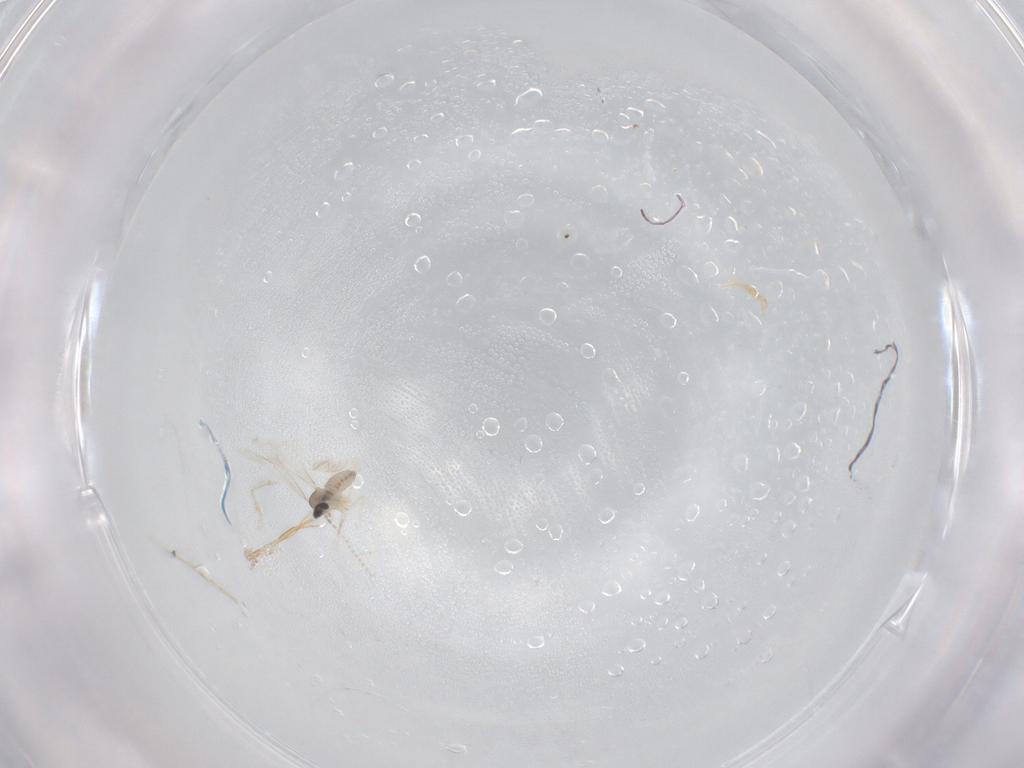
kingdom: Animalia
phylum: Arthropoda
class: Insecta
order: Diptera
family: Cecidomyiidae
